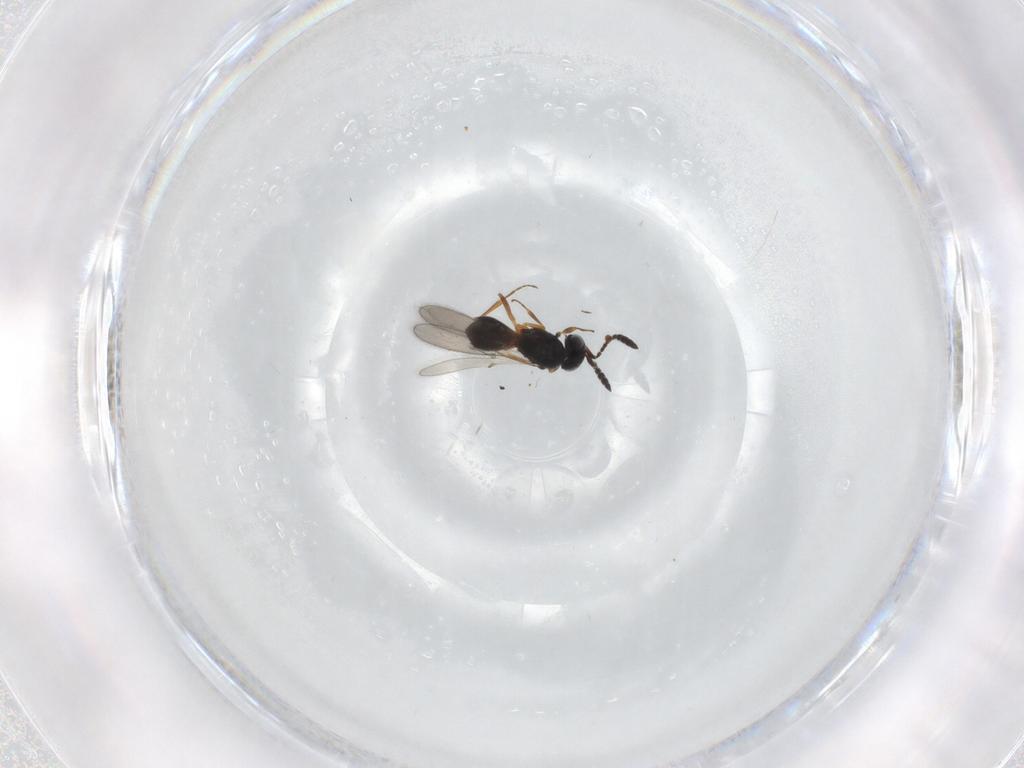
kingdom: Animalia
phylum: Arthropoda
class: Insecta
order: Hymenoptera
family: Scelionidae
